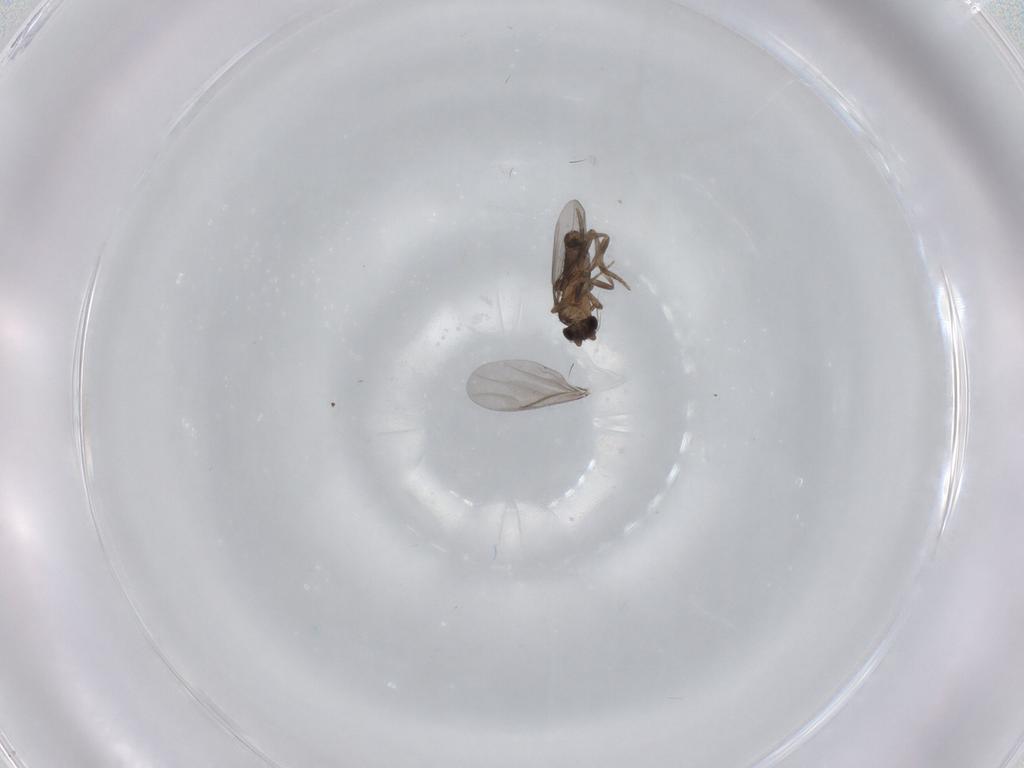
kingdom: Animalia
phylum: Arthropoda
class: Insecta
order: Diptera
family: Phoridae
